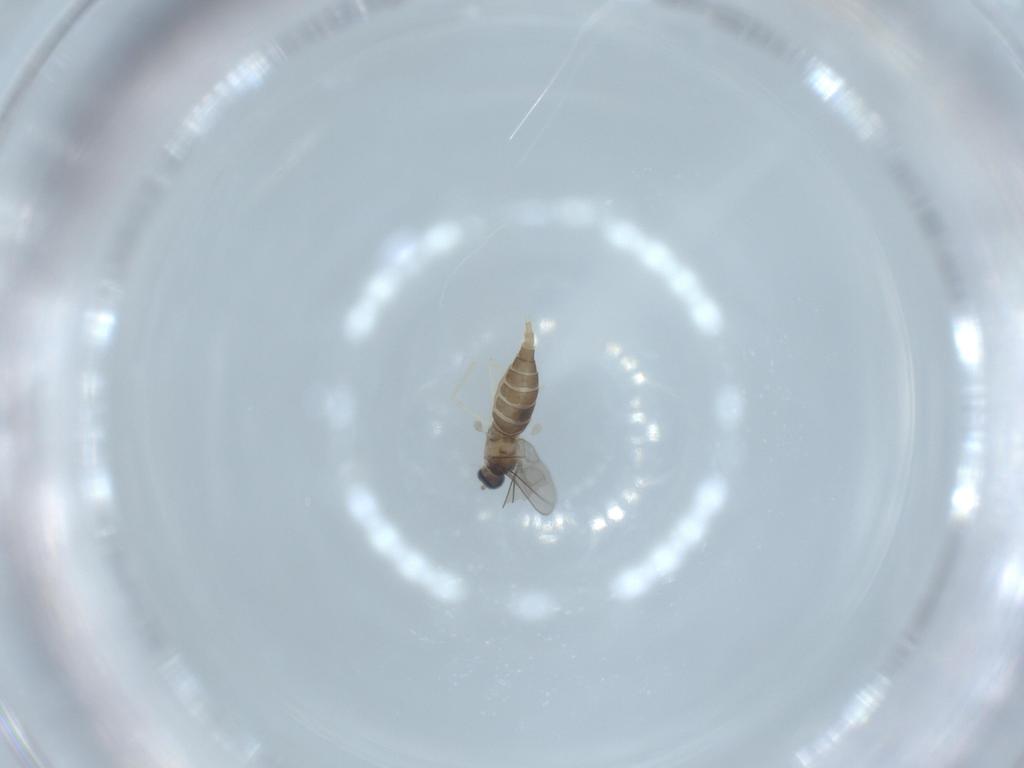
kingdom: Animalia
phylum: Arthropoda
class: Insecta
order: Diptera
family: Cecidomyiidae
